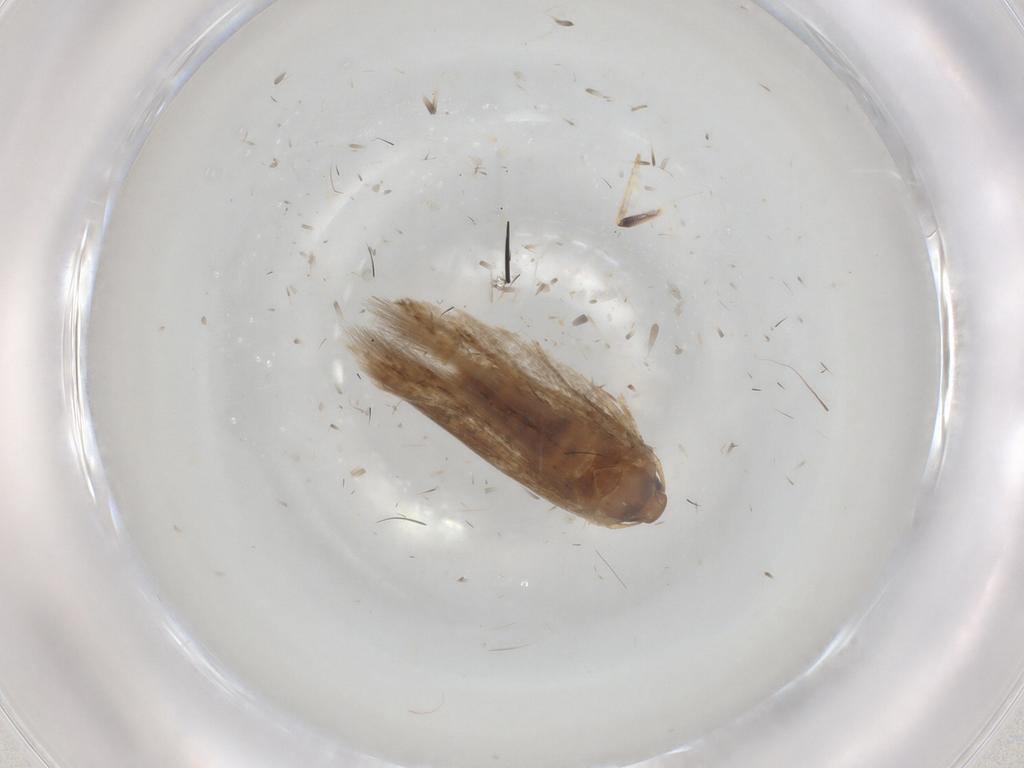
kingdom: Animalia
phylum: Arthropoda
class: Insecta
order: Lepidoptera
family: Cosmopterigidae
